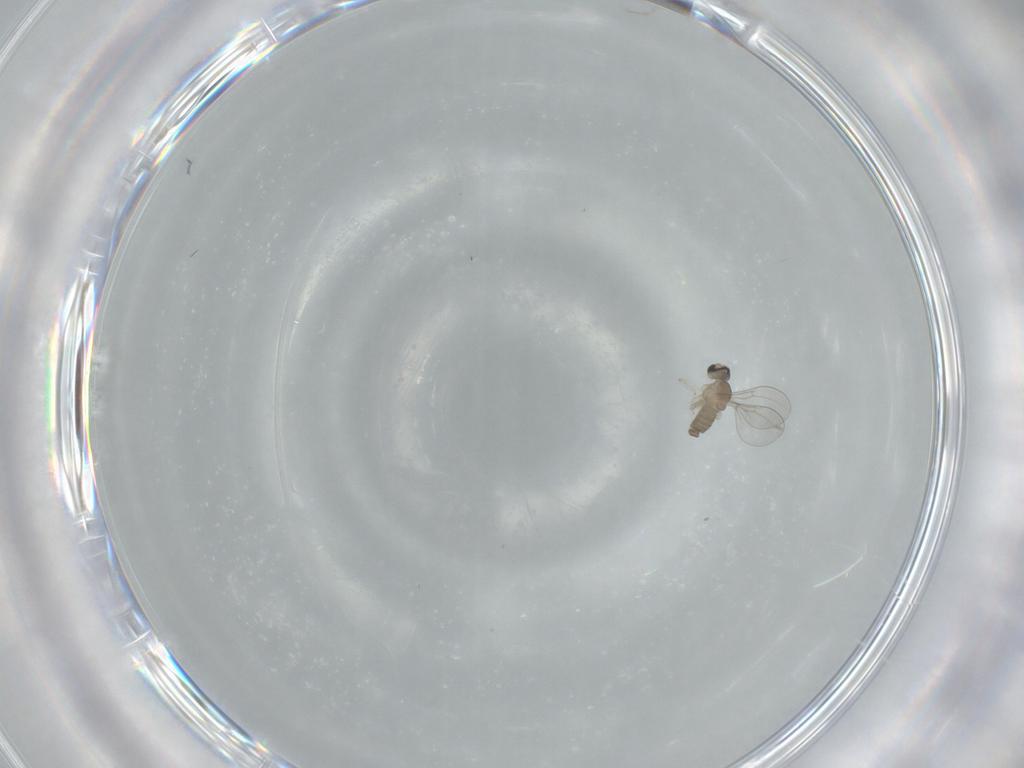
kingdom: Animalia
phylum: Arthropoda
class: Insecta
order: Diptera
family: Cecidomyiidae
